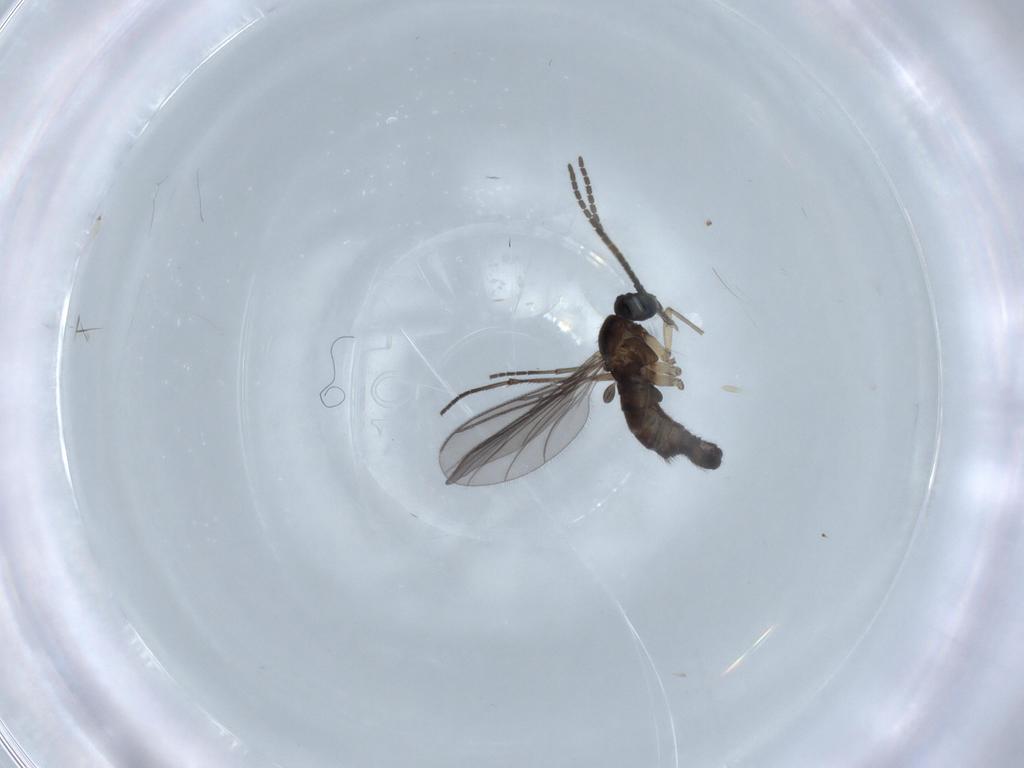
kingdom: Animalia
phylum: Arthropoda
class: Insecta
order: Diptera
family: Sciaridae
